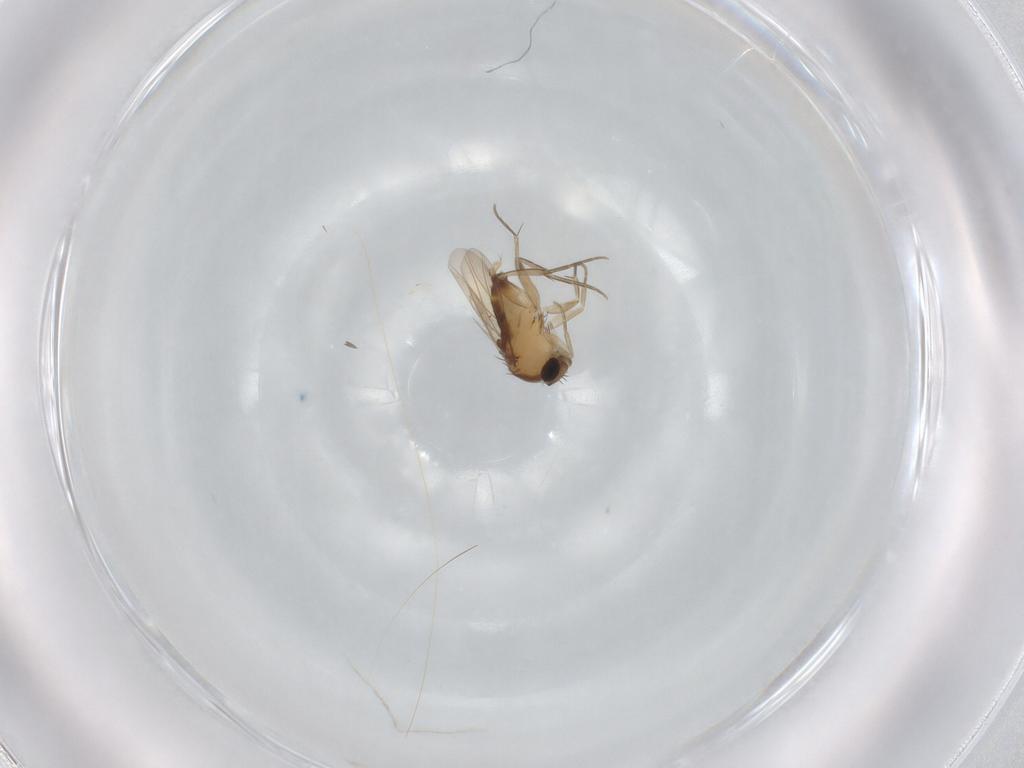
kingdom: Animalia
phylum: Arthropoda
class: Insecta
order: Diptera
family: Phoridae
